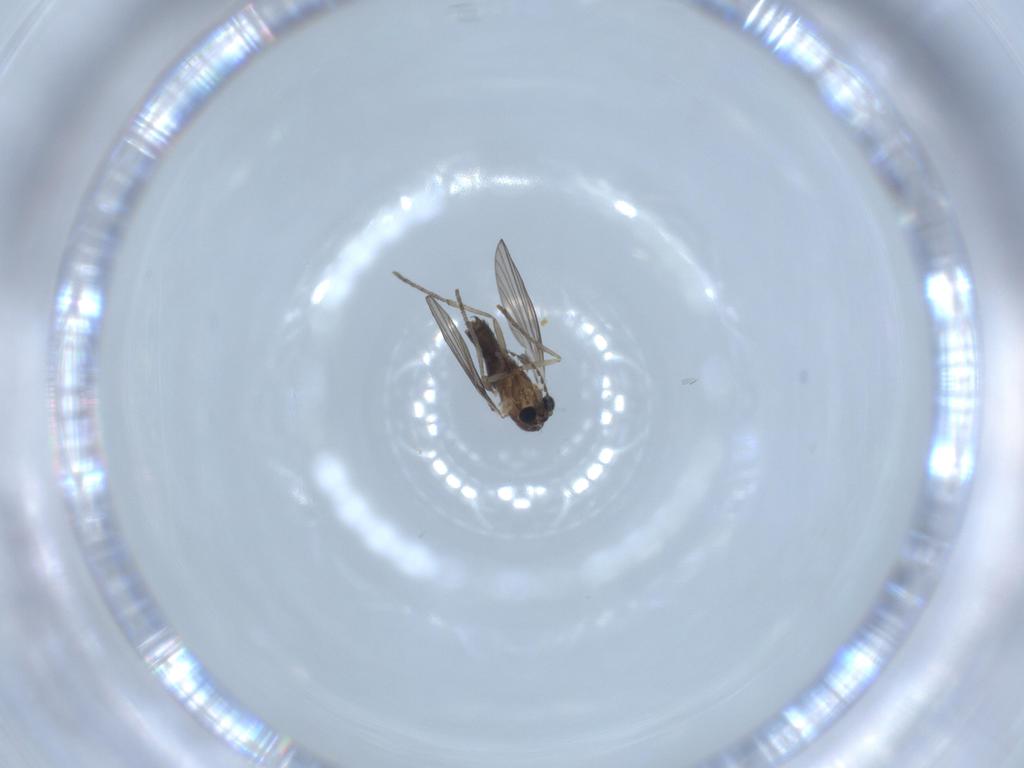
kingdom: Animalia
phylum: Arthropoda
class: Insecta
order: Diptera
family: Psychodidae
